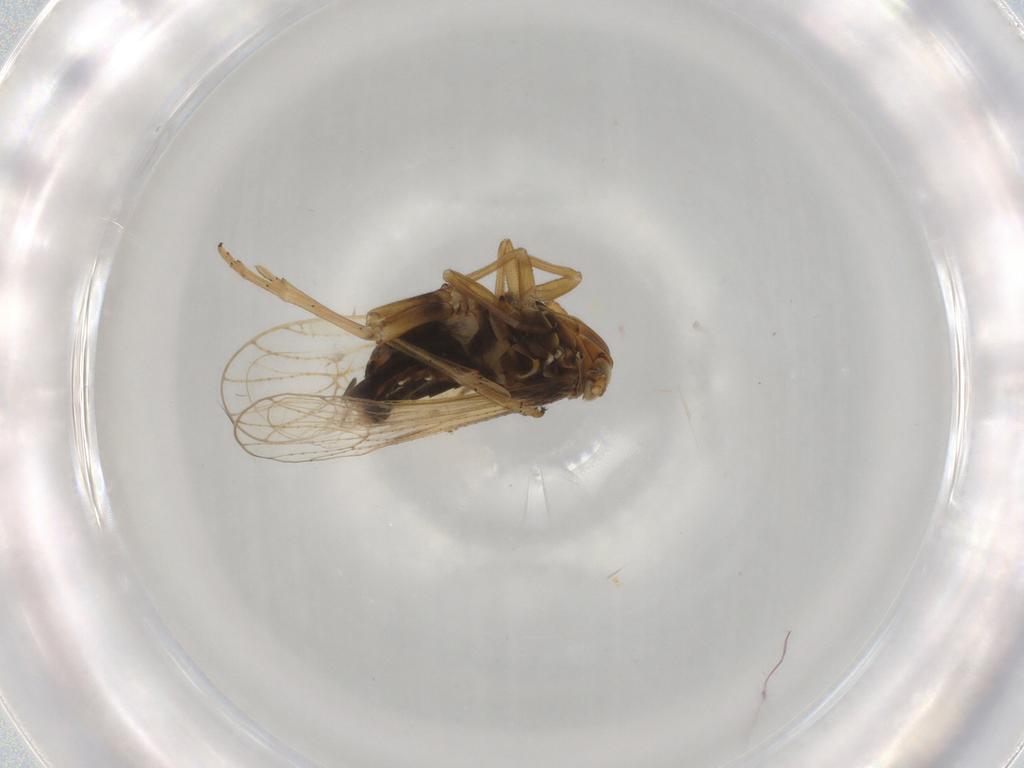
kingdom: Animalia
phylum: Arthropoda
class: Insecta
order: Hemiptera
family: Delphacidae
